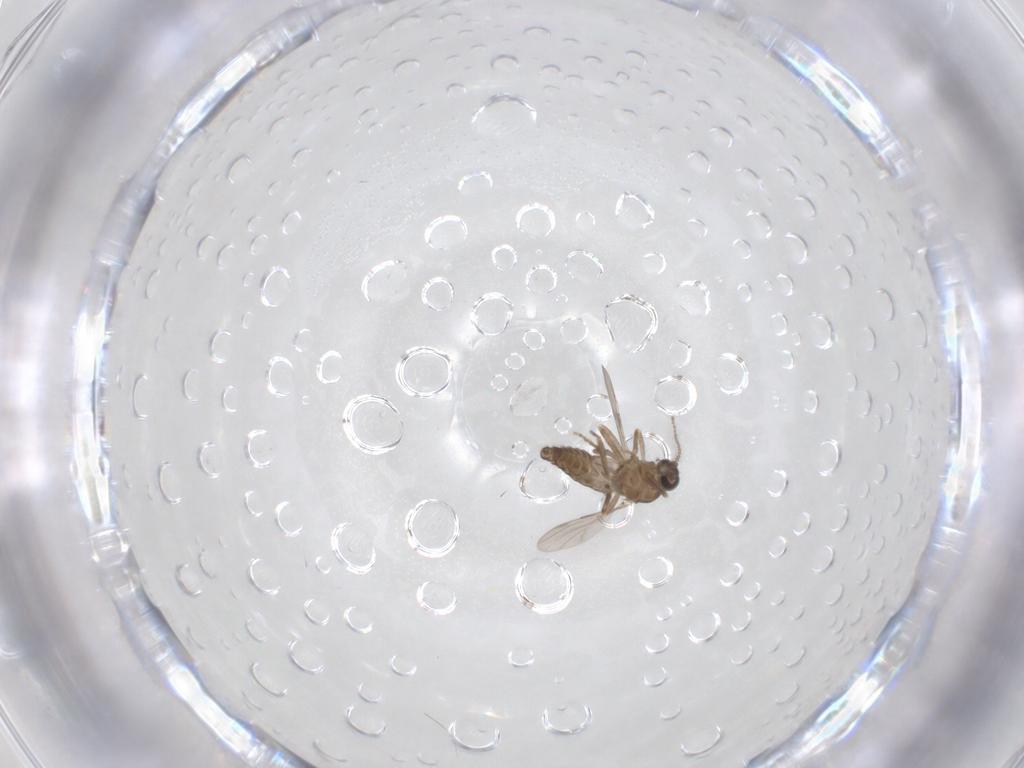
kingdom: Animalia
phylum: Arthropoda
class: Insecta
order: Diptera
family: Ceratopogonidae
